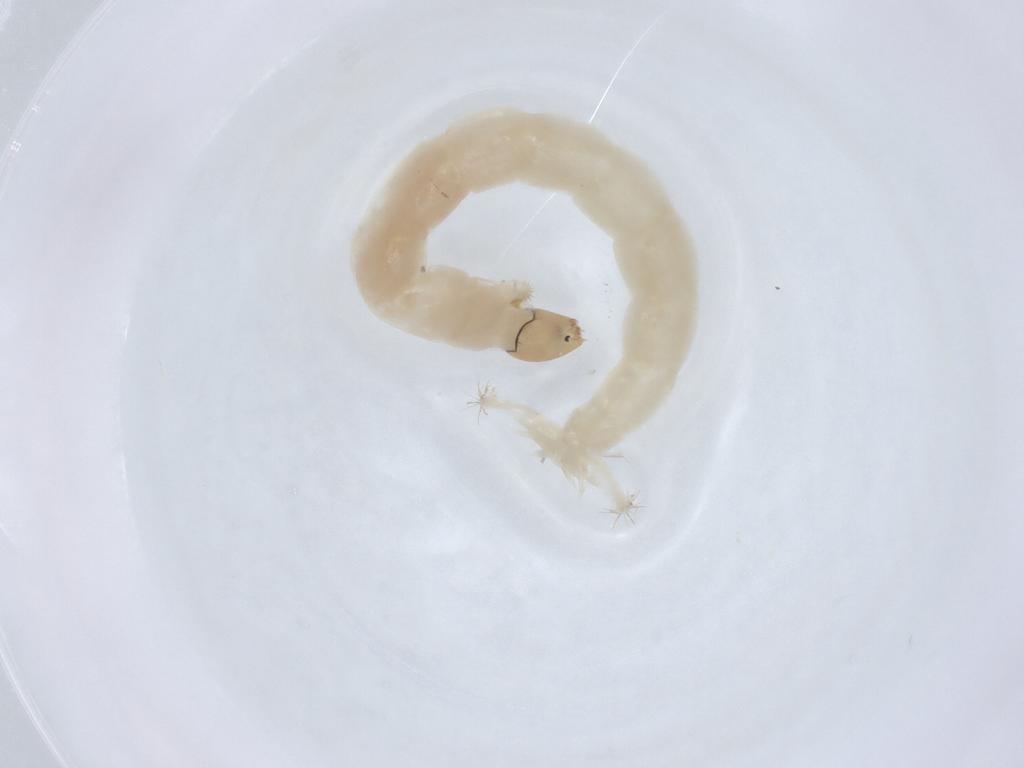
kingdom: Animalia
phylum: Arthropoda
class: Insecta
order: Diptera
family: Chironomidae
